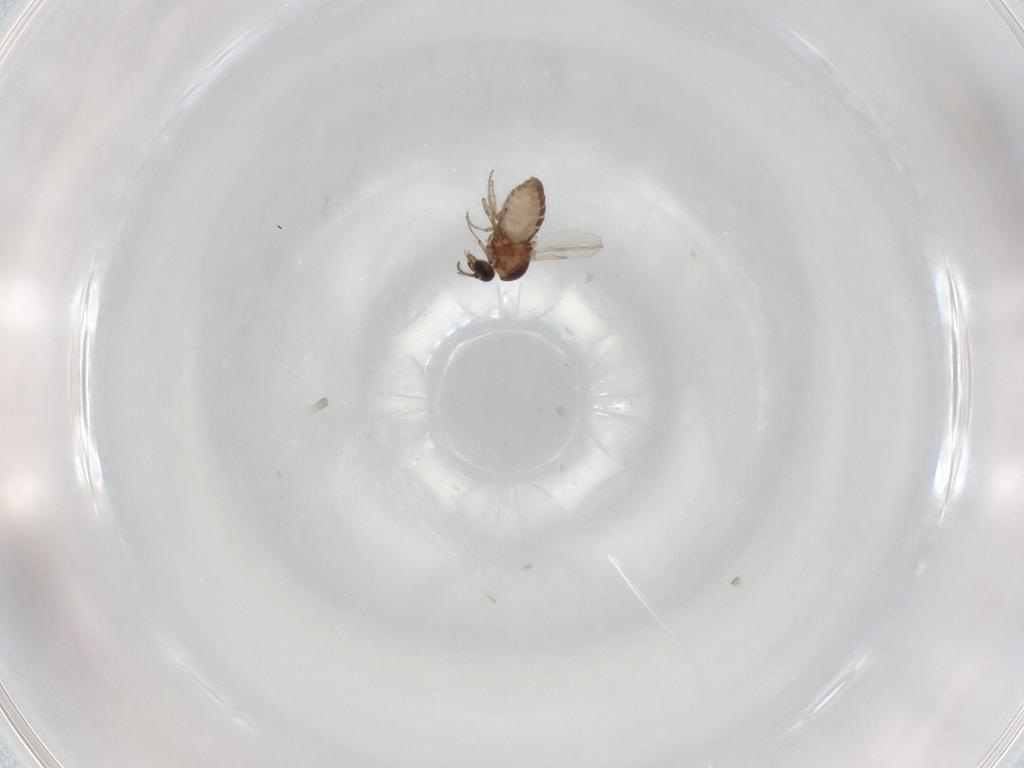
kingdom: Animalia
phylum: Arthropoda
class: Insecta
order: Diptera
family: Ceratopogonidae
